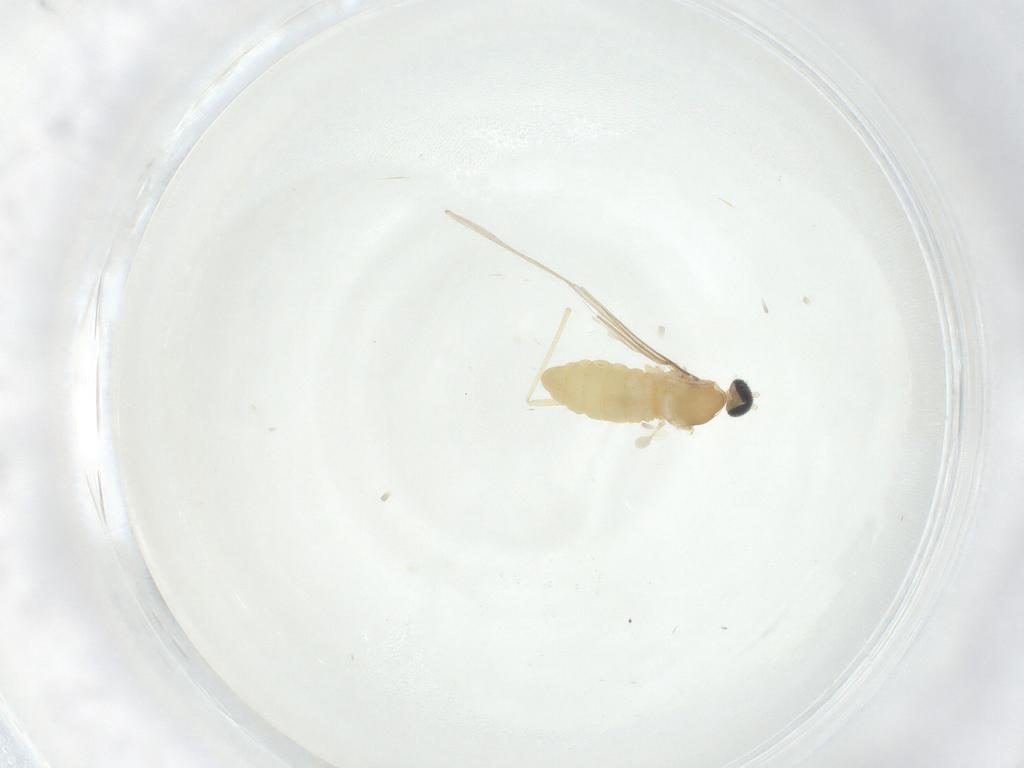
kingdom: Animalia
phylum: Arthropoda
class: Insecta
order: Diptera
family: Cecidomyiidae
